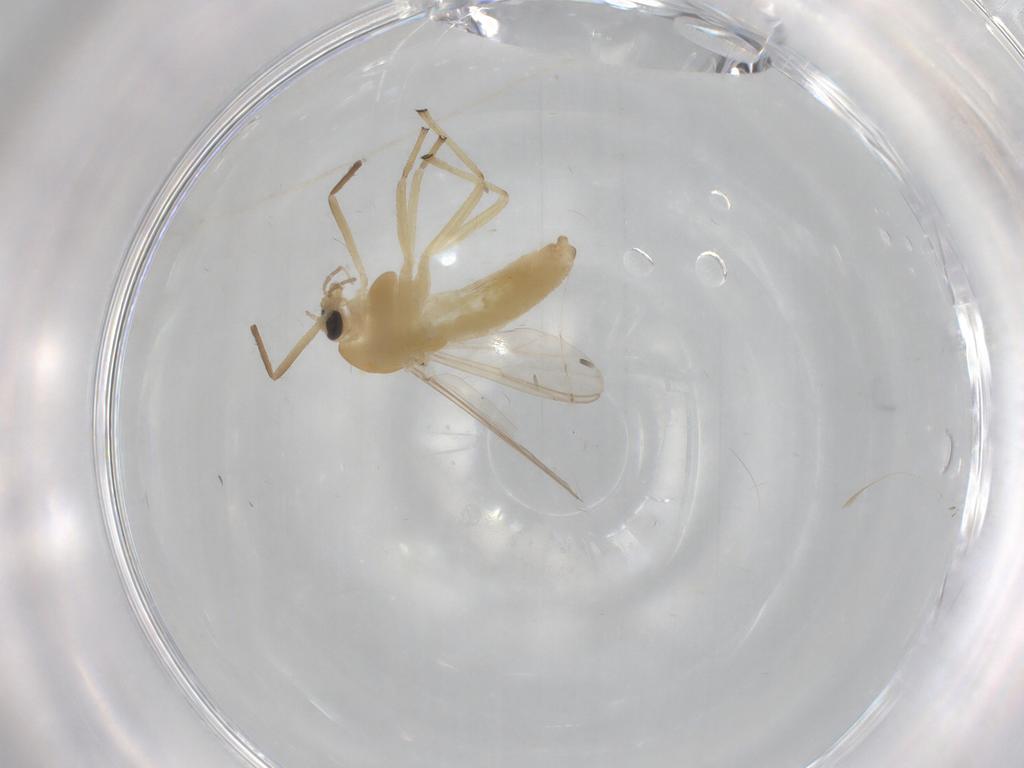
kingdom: Animalia
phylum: Arthropoda
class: Insecta
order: Diptera
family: Chironomidae
